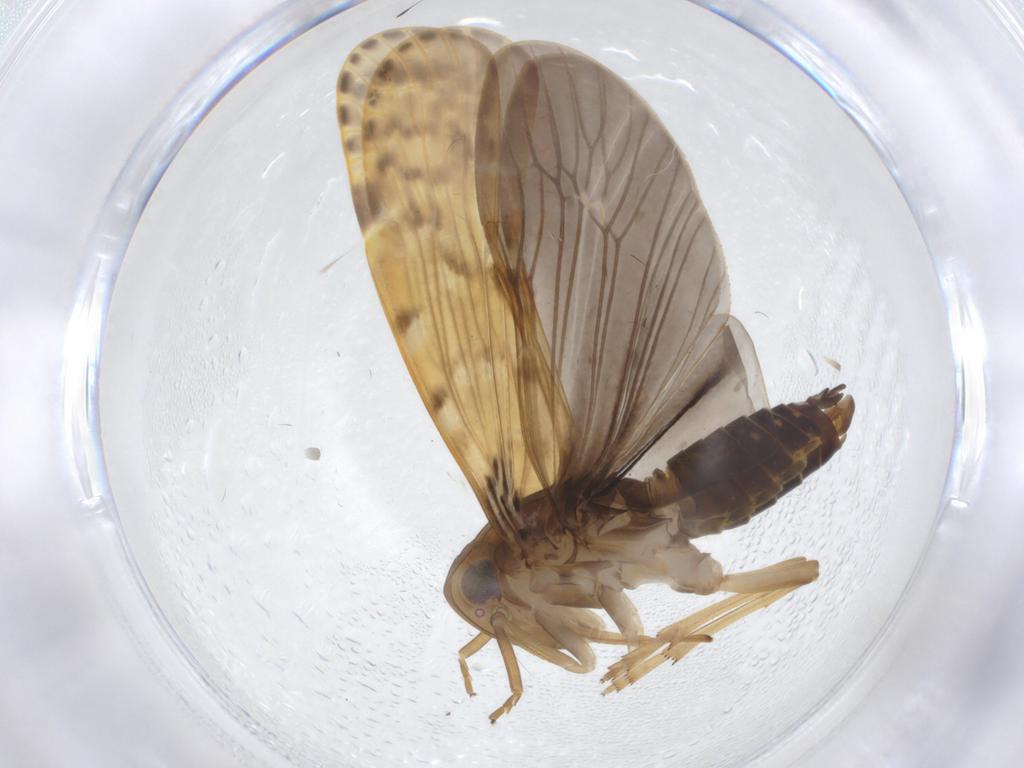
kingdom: Animalia
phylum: Arthropoda
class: Insecta
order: Hemiptera
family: Achilidae
